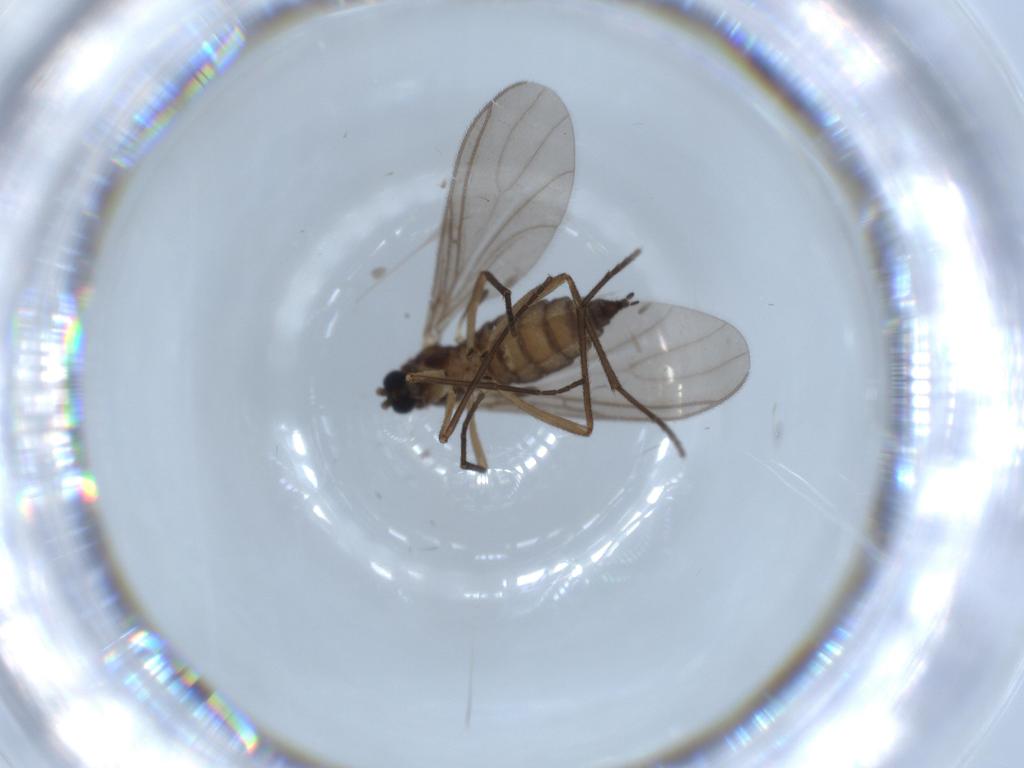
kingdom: Animalia
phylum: Arthropoda
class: Insecta
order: Diptera
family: Sciaridae
